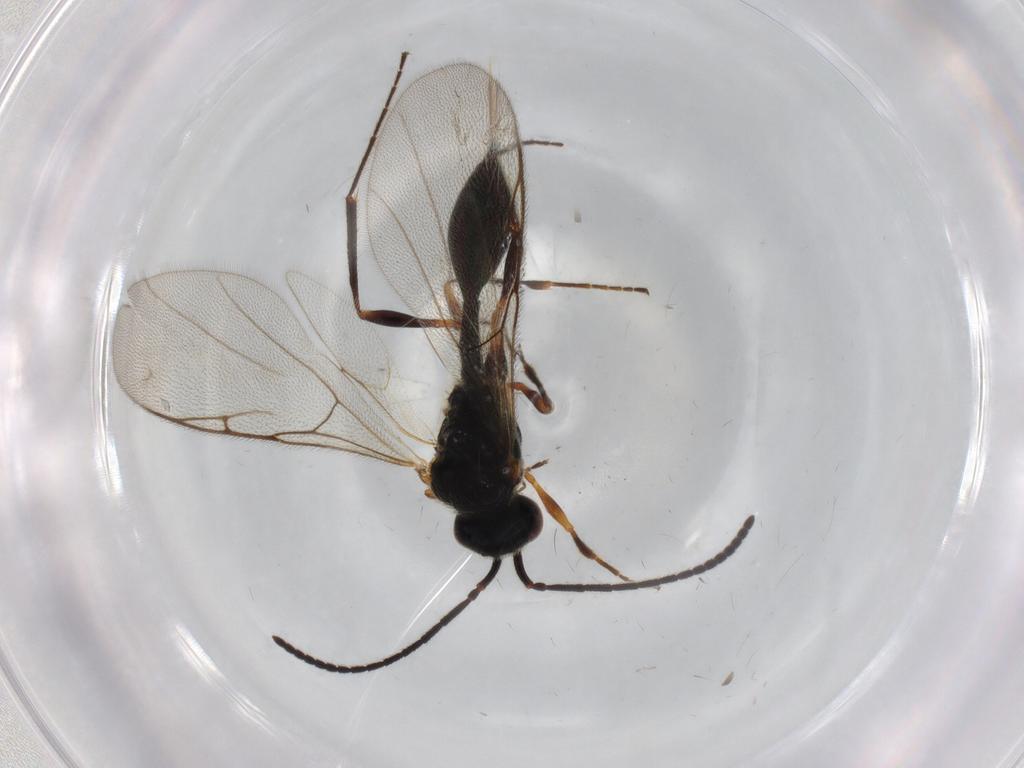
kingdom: Animalia
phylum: Arthropoda
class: Insecta
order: Hymenoptera
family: Diapriidae
